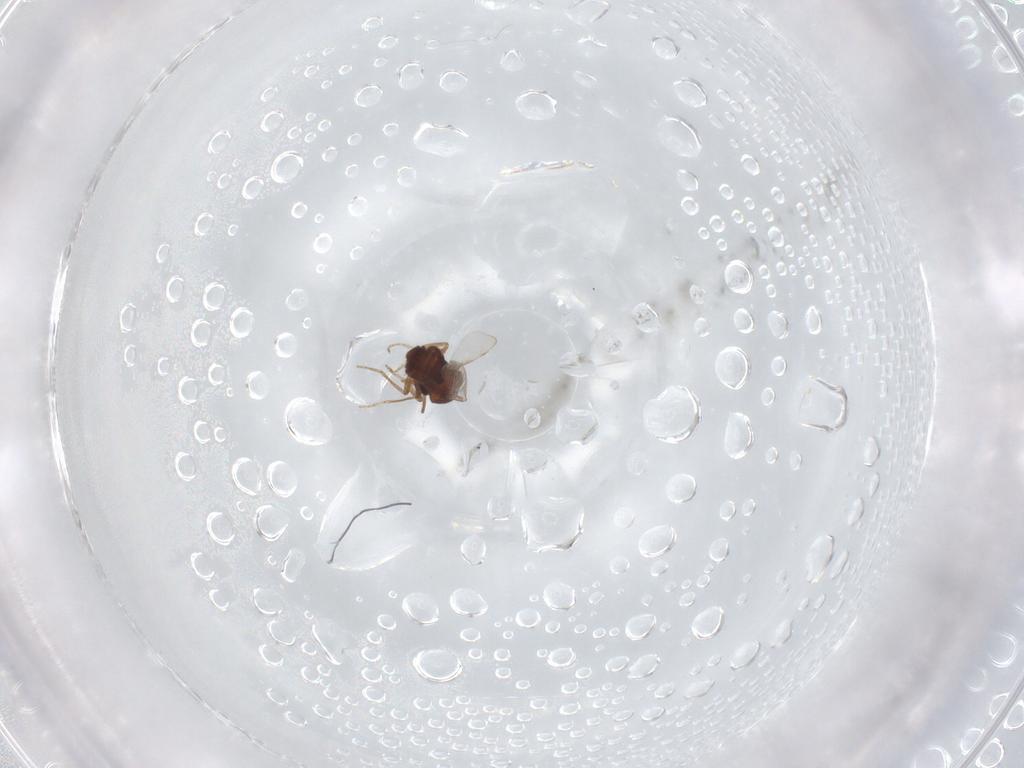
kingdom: Animalia
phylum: Arthropoda
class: Insecta
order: Diptera
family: Ceratopogonidae
